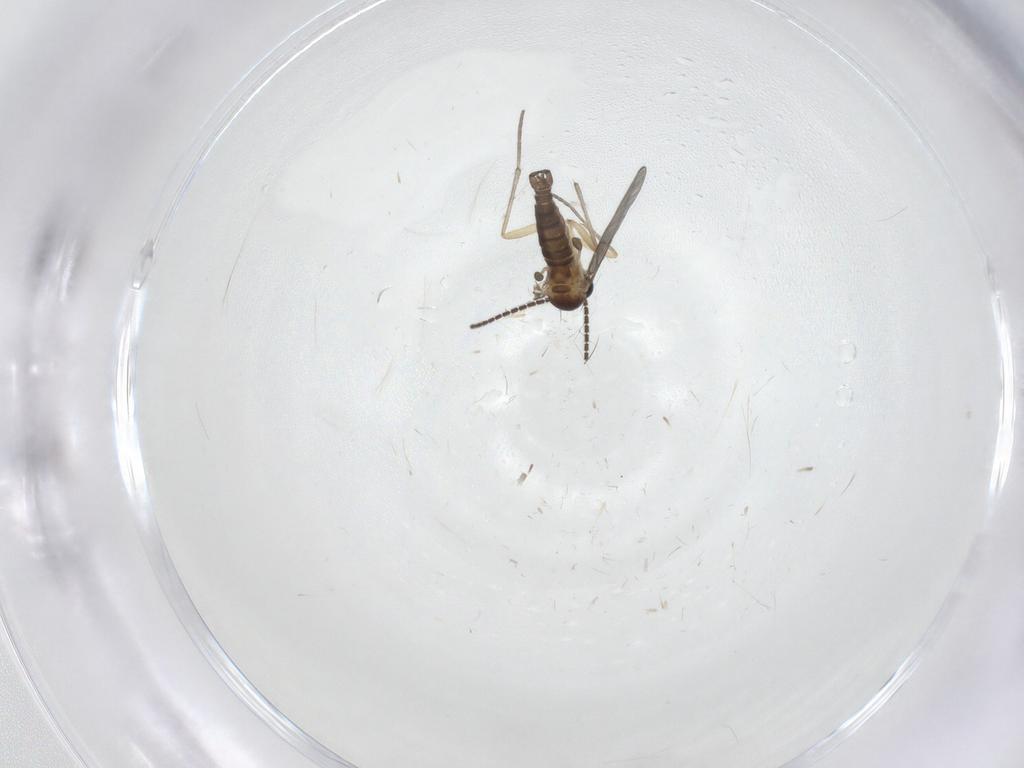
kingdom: Animalia
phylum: Arthropoda
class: Insecta
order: Diptera
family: Sciaridae
